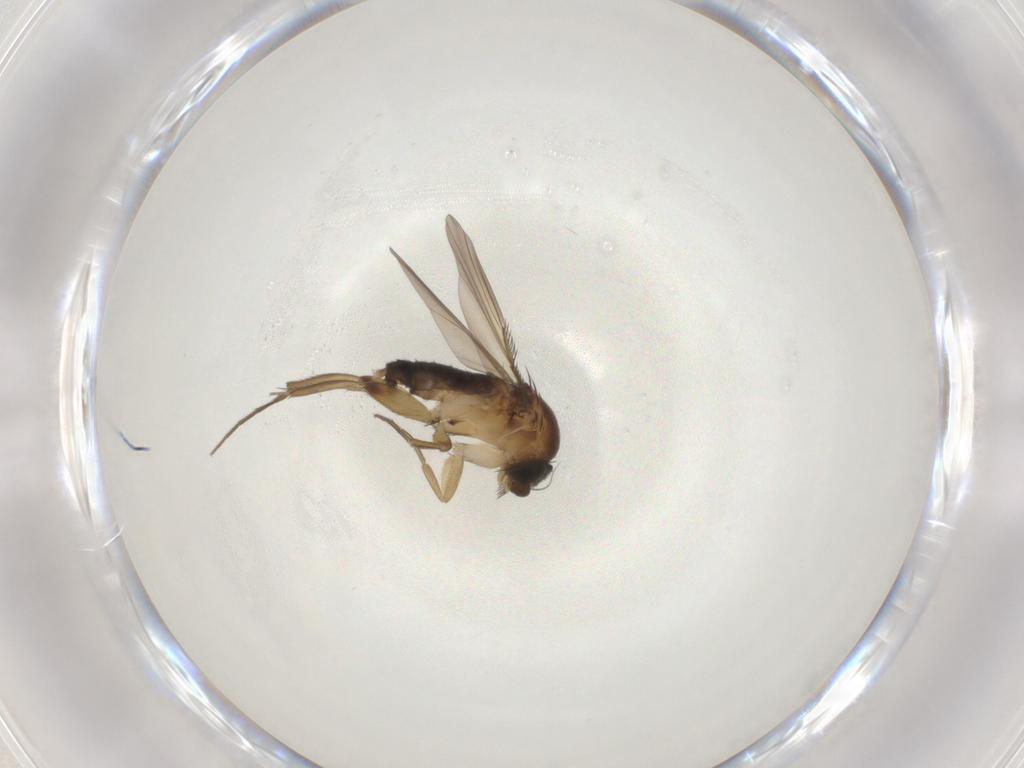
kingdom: Animalia
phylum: Arthropoda
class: Insecta
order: Diptera
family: Phoridae
